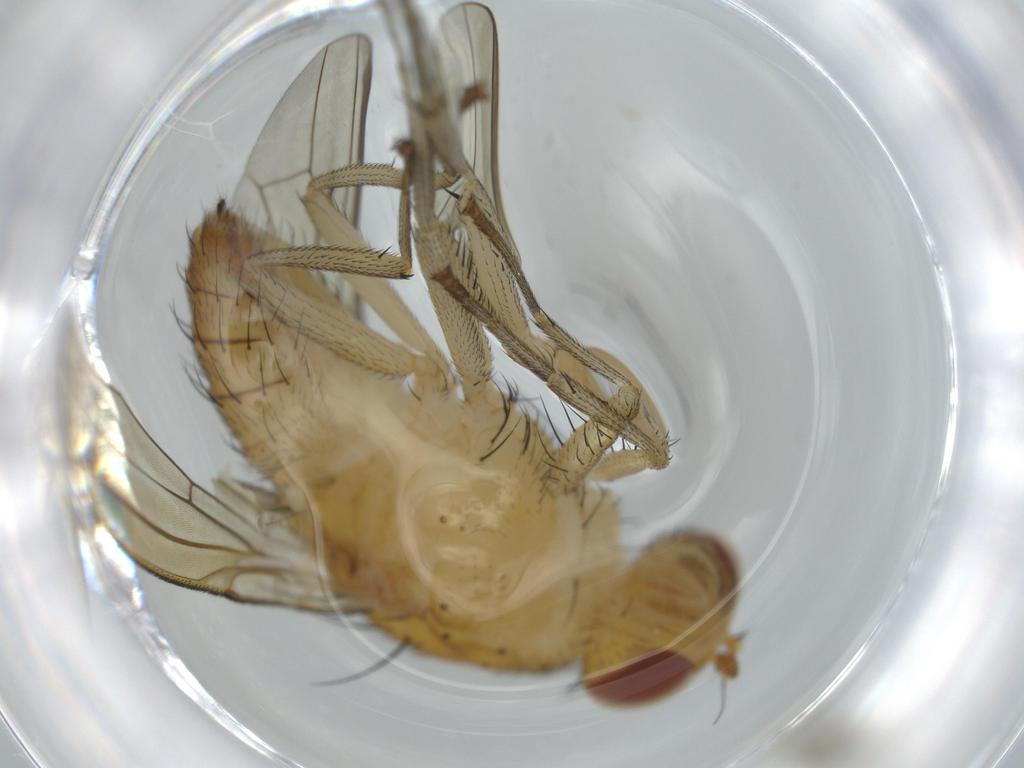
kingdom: Animalia
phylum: Arthropoda
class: Insecta
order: Diptera
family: Ceratopogonidae
